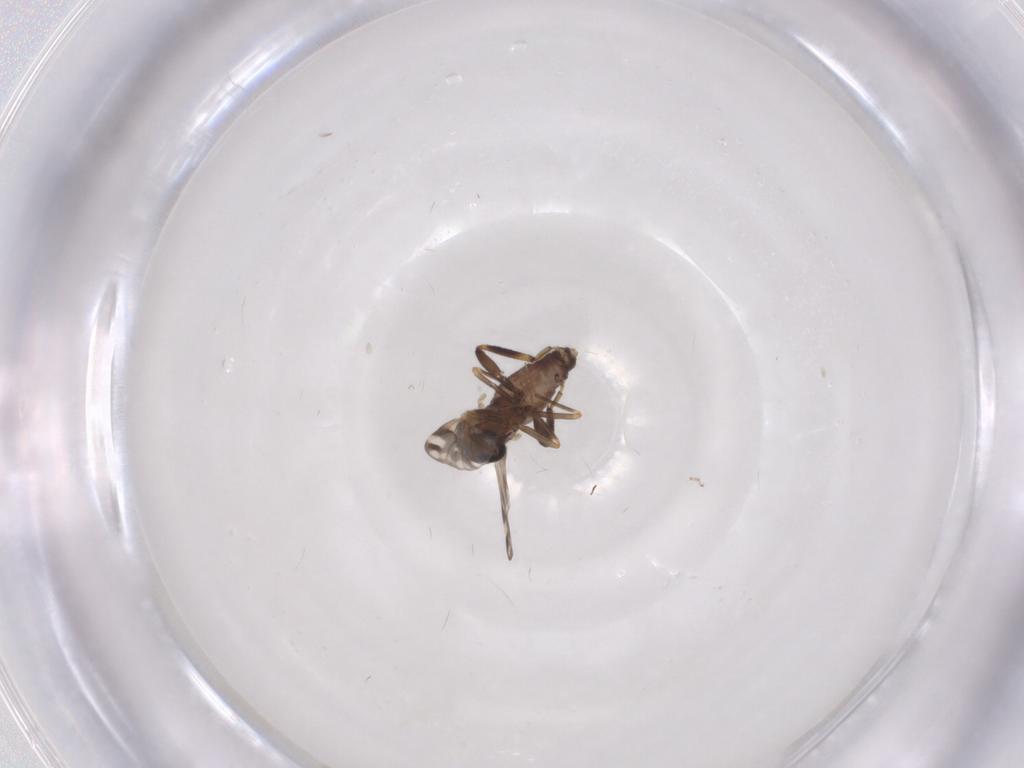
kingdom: Animalia
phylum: Arthropoda
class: Insecta
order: Diptera
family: Ceratopogonidae
